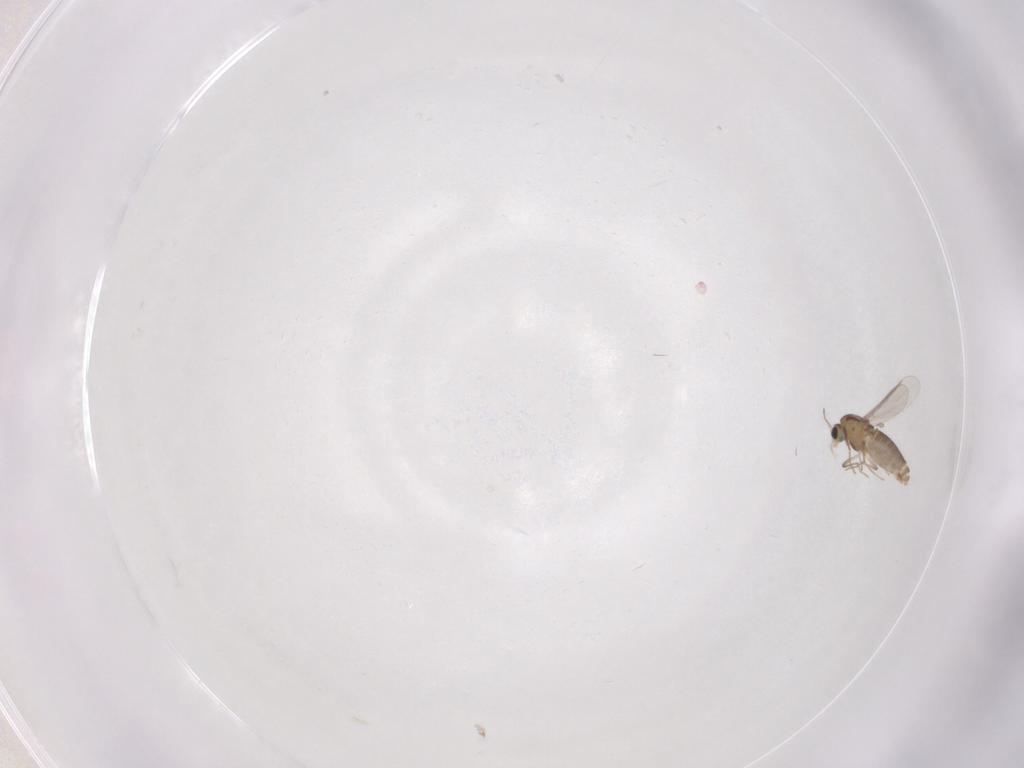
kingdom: Animalia
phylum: Arthropoda
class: Insecta
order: Diptera
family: Chironomidae
